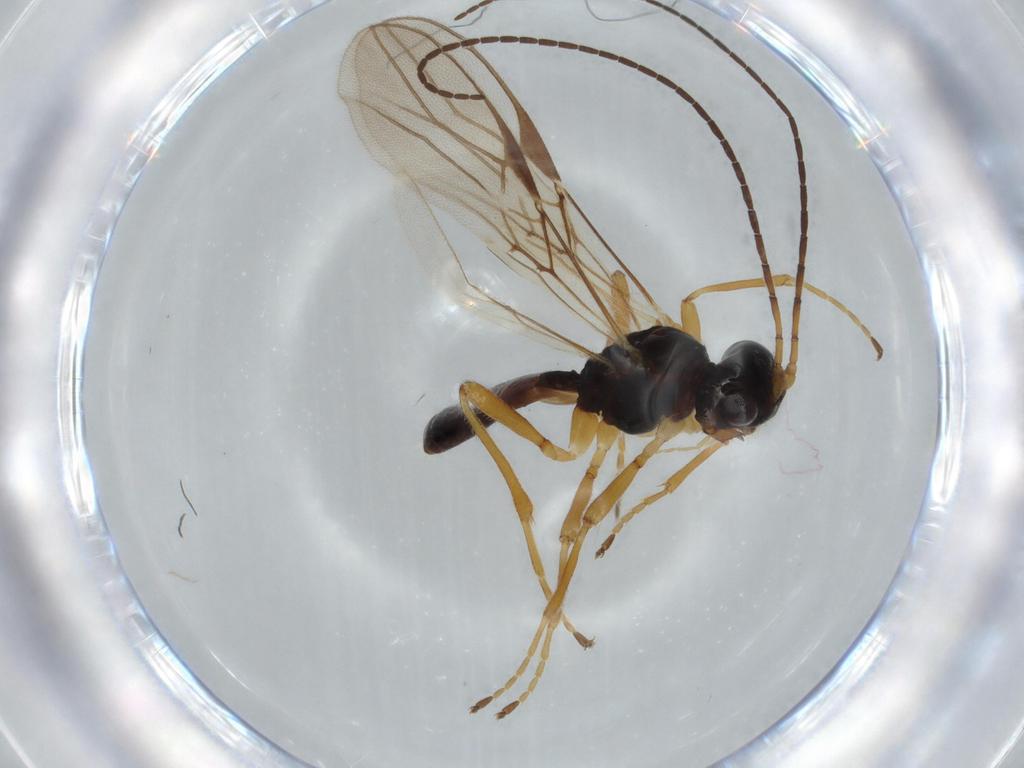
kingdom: Animalia
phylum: Arthropoda
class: Insecta
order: Hymenoptera
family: Braconidae
